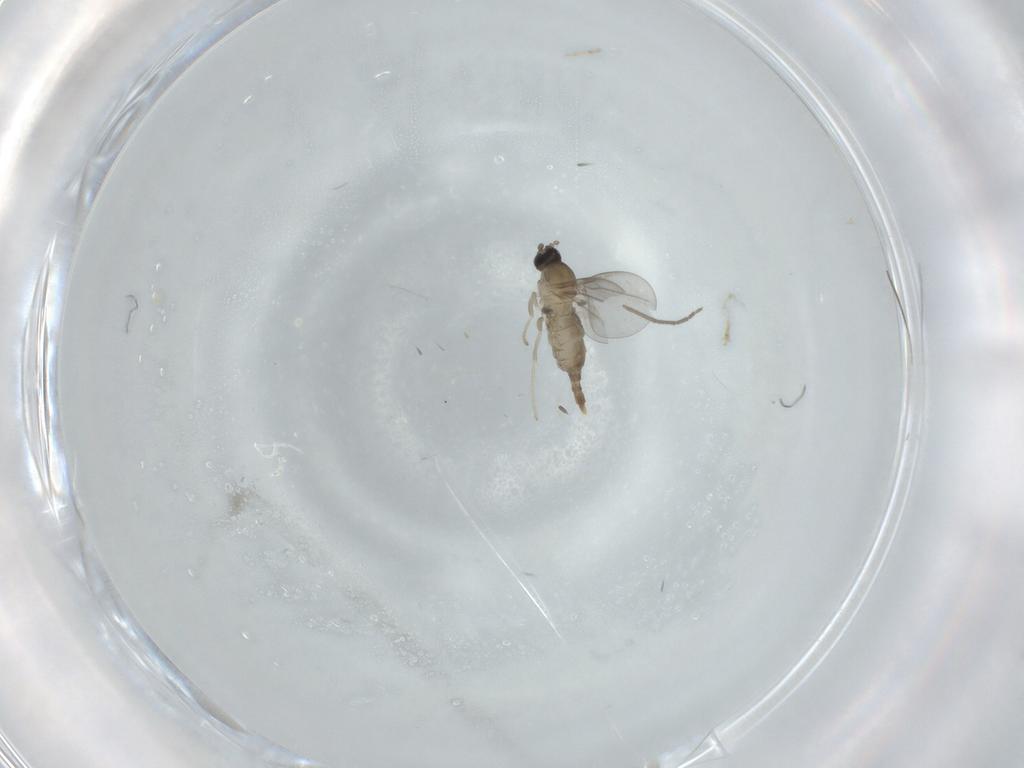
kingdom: Animalia
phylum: Arthropoda
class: Insecta
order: Diptera
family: Cecidomyiidae
